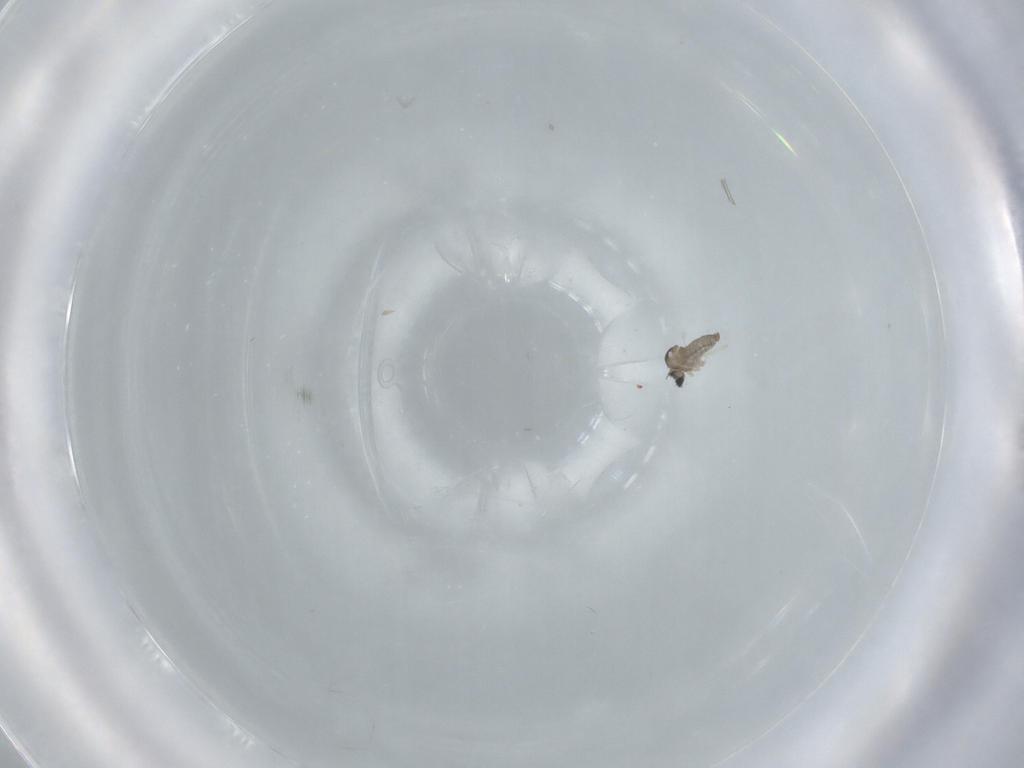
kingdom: Animalia
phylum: Arthropoda
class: Insecta
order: Diptera
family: Cecidomyiidae
